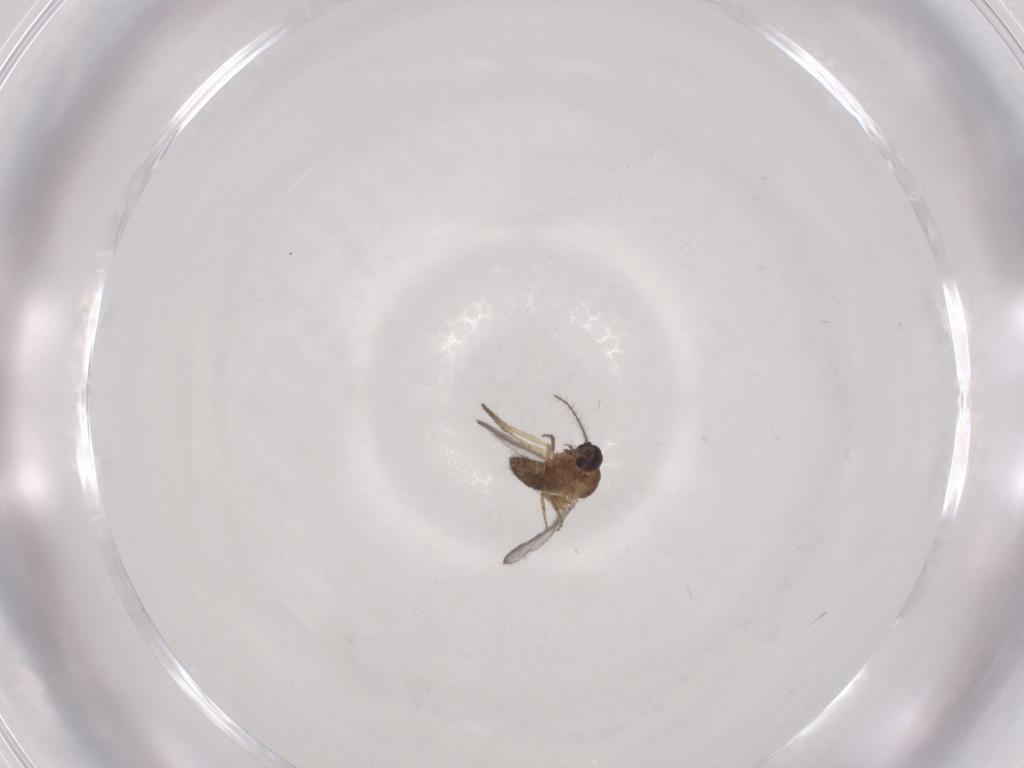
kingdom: Animalia
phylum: Arthropoda
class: Insecta
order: Diptera
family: Ceratopogonidae
